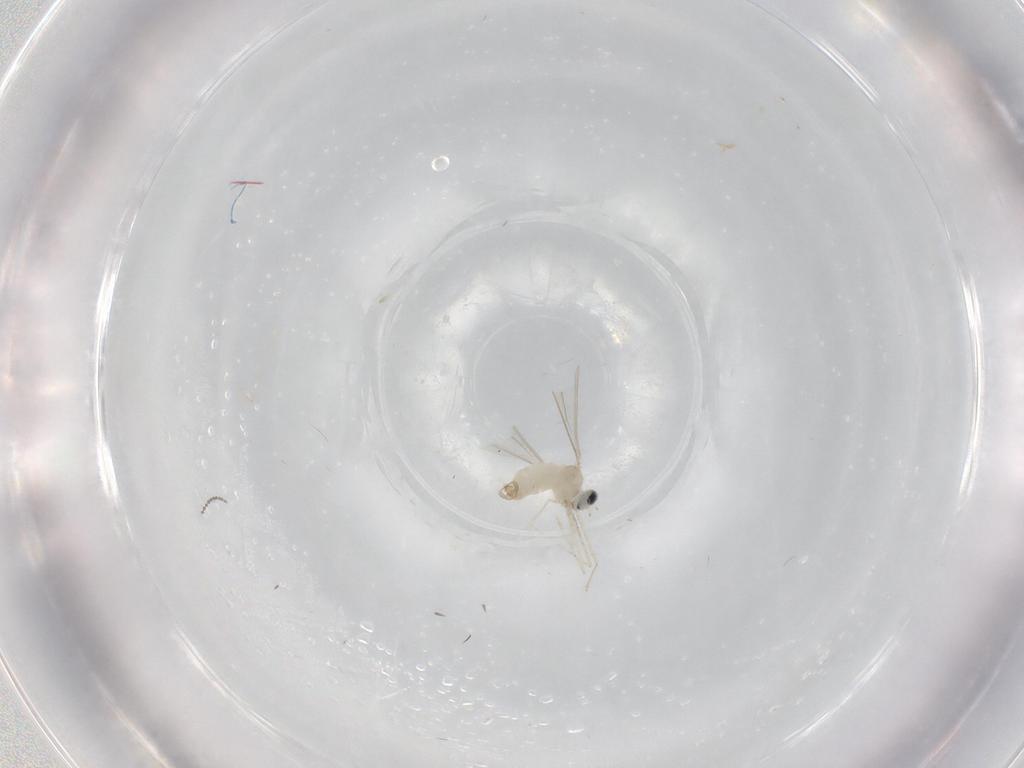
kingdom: Animalia
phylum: Arthropoda
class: Insecta
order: Diptera
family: Cecidomyiidae
